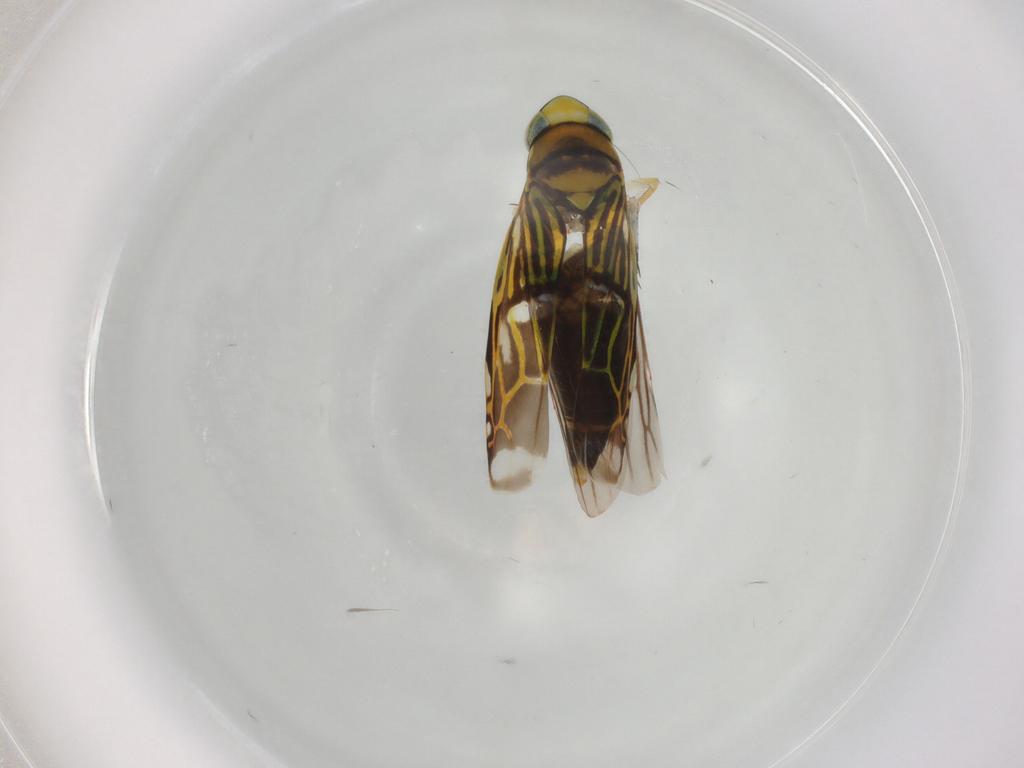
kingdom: Animalia
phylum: Arthropoda
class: Insecta
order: Hemiptera
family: Cicadellidae
